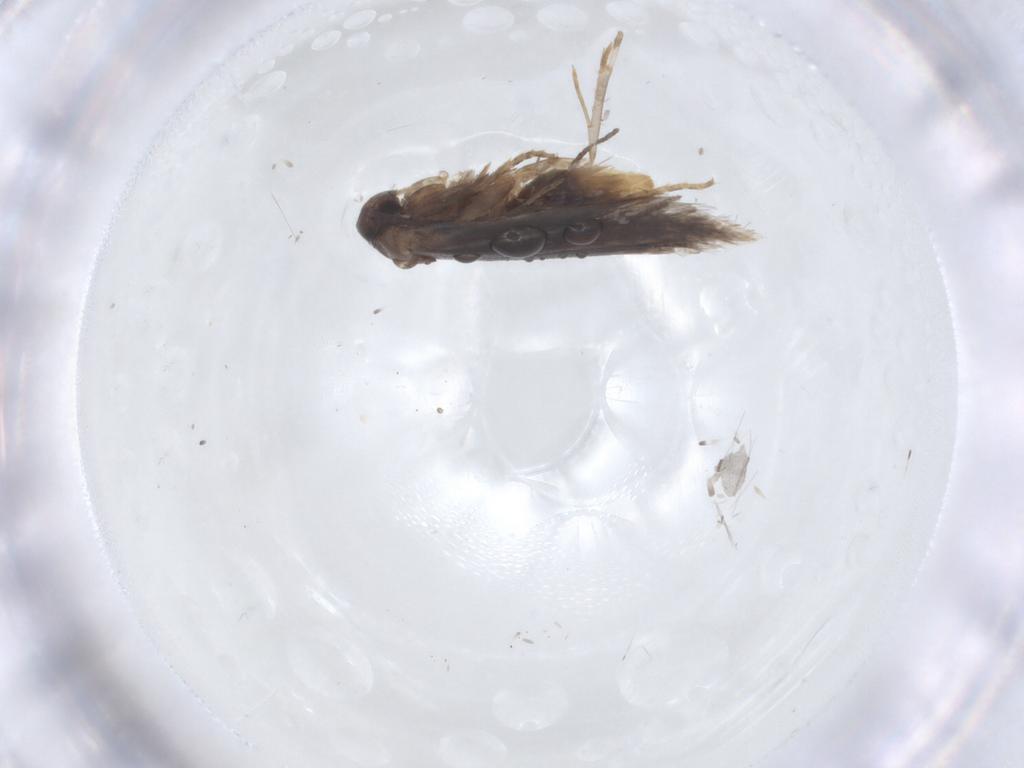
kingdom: Animalia
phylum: Arthropoda
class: Insecta
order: Lepidoptera
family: Elachistidae
